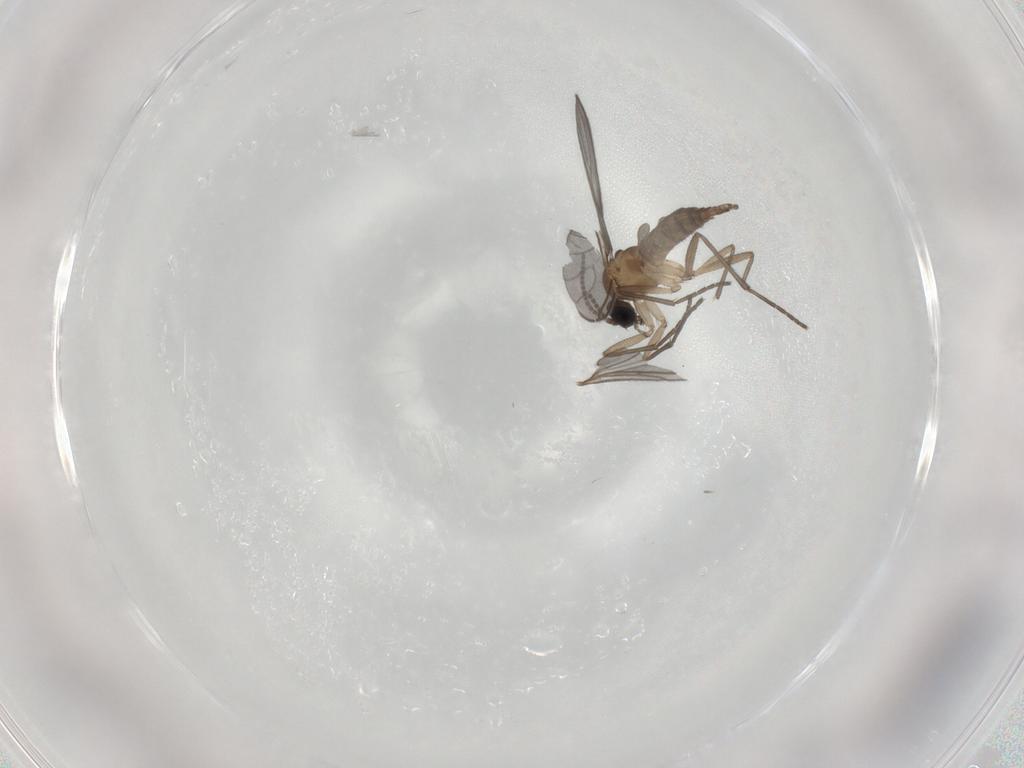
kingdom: Animalia
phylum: Arthropoda
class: Insecta
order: Diptera
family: Sciaridae
